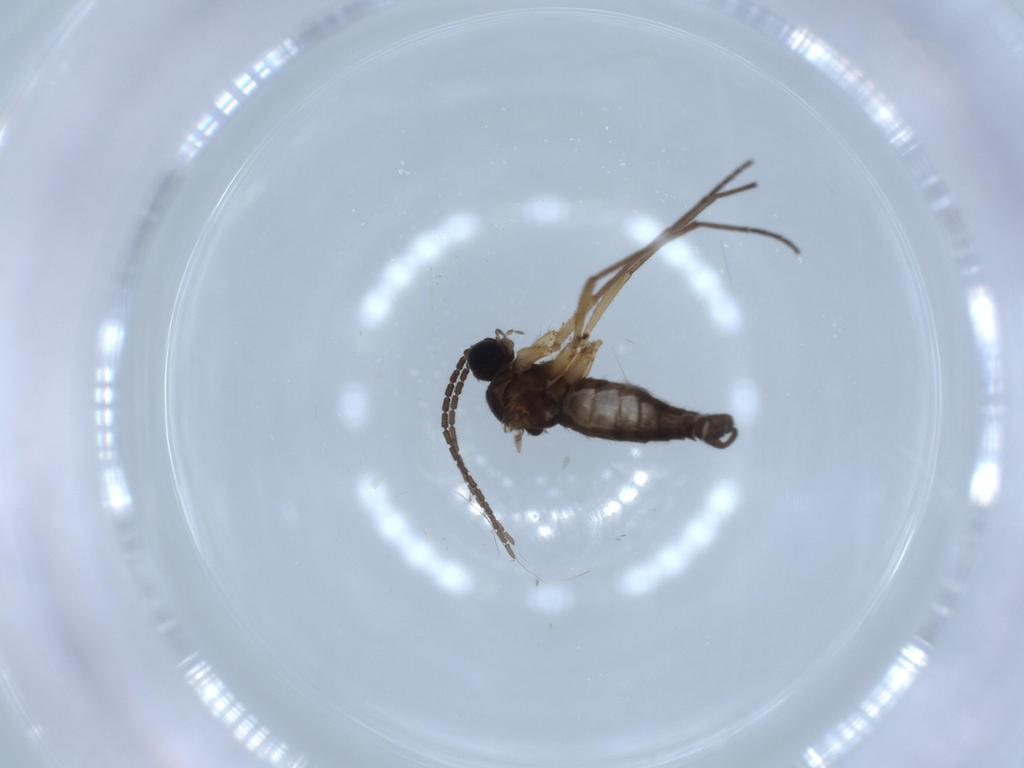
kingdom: Animalia
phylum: Arthropoda
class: Insecta
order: Diptera
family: Sciaridae
